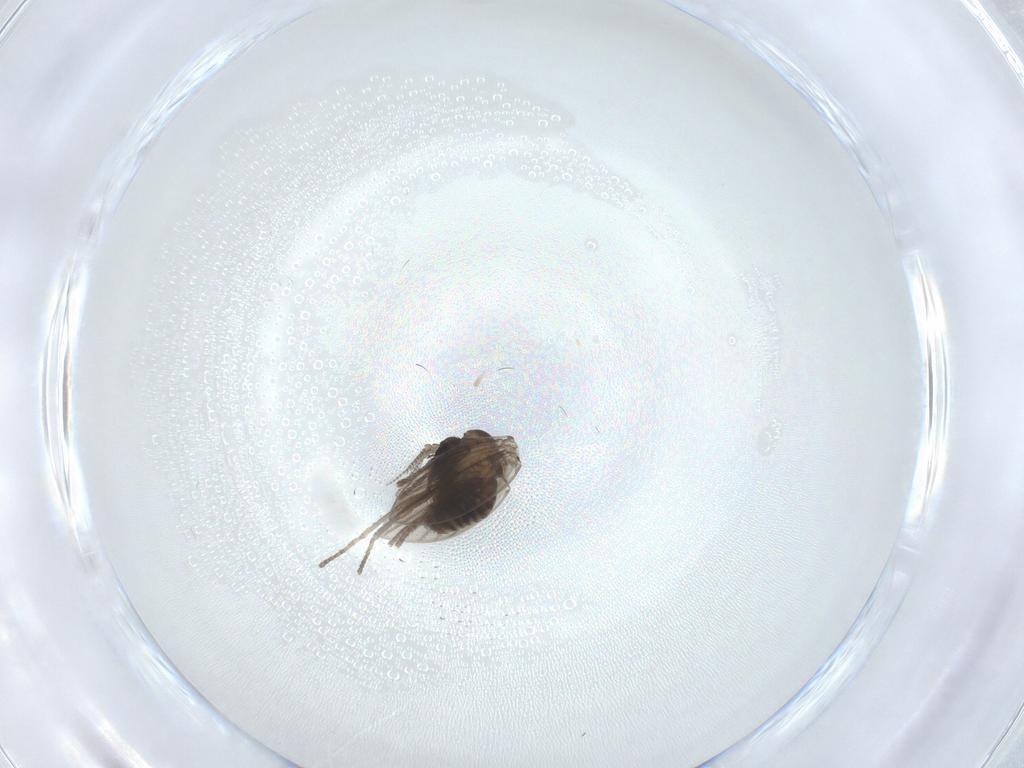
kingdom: Animalia
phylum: Arthropoda
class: Insecta
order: Diptera
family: Psychodidae
